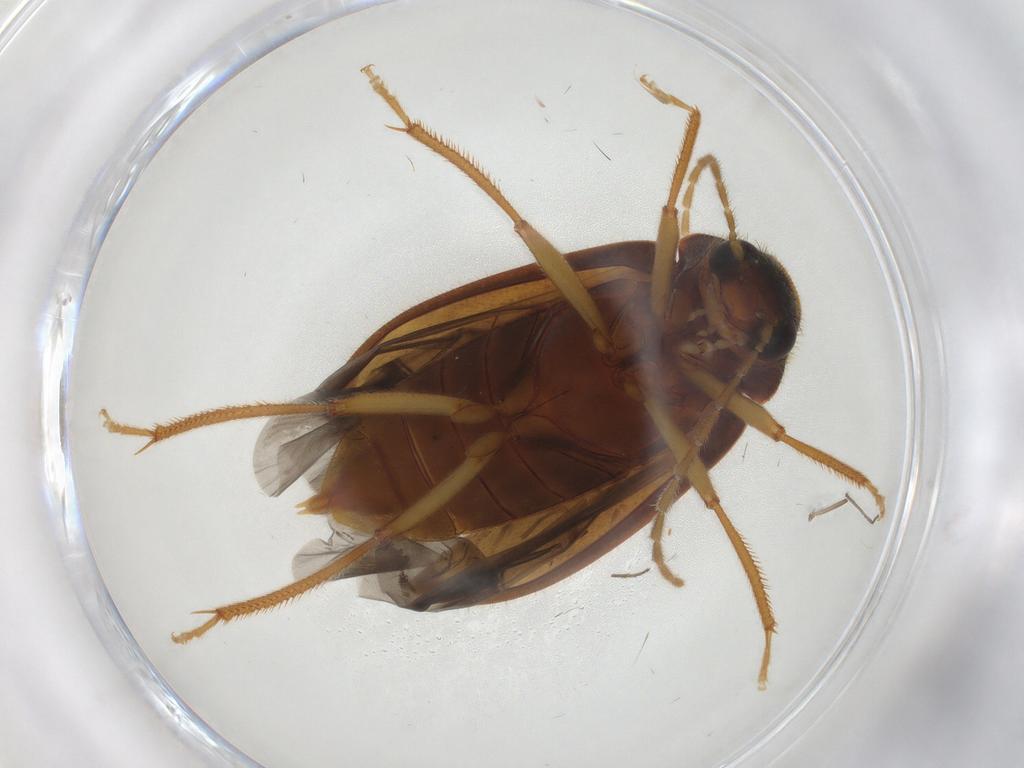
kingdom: Animalia
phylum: Arthropoda
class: Insecta
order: Coleoptera
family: Ptilodactylidae
